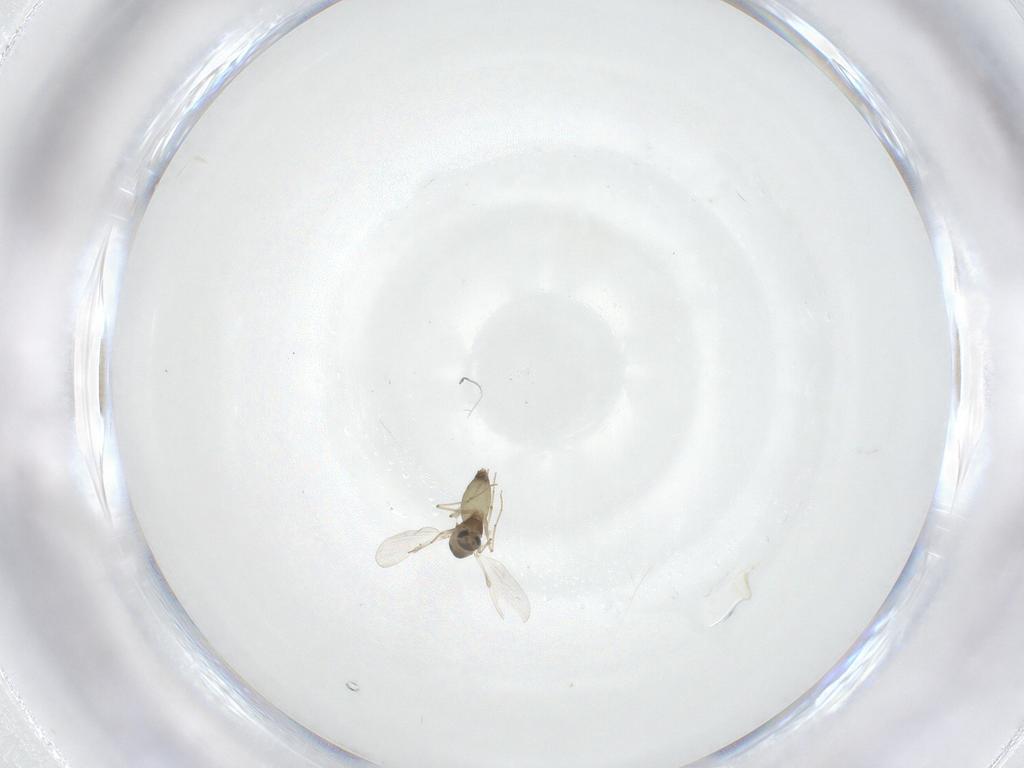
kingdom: Animalia
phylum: Arthropoda
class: Insecta
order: Diptera
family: Chironomidae
